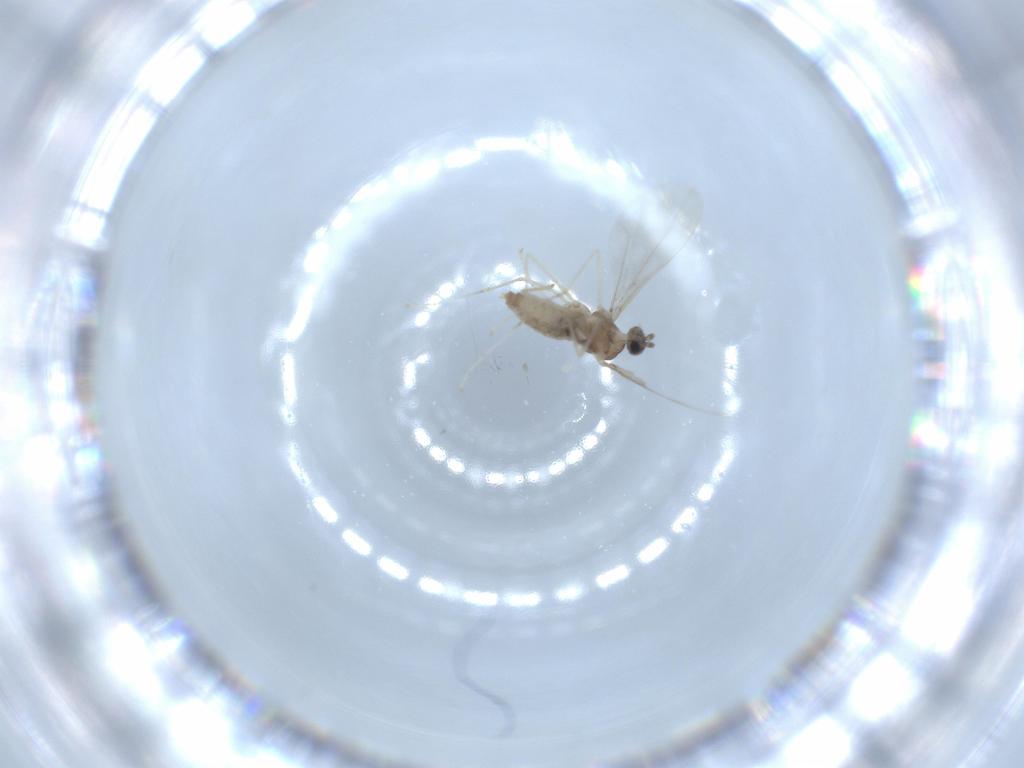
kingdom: Animalia
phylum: Arthropoda
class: Insecta
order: Diptera
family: Cecidomyiidae
